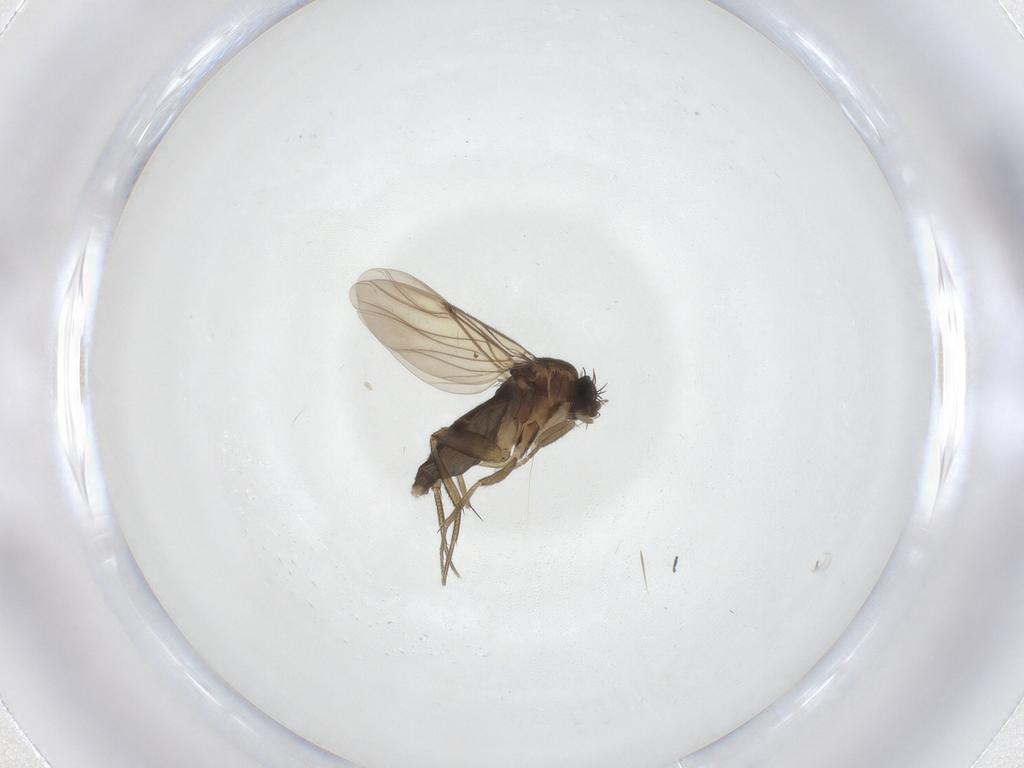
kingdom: Animalia
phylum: Arthropoda
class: Insecta
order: Diptera
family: Phoridae
